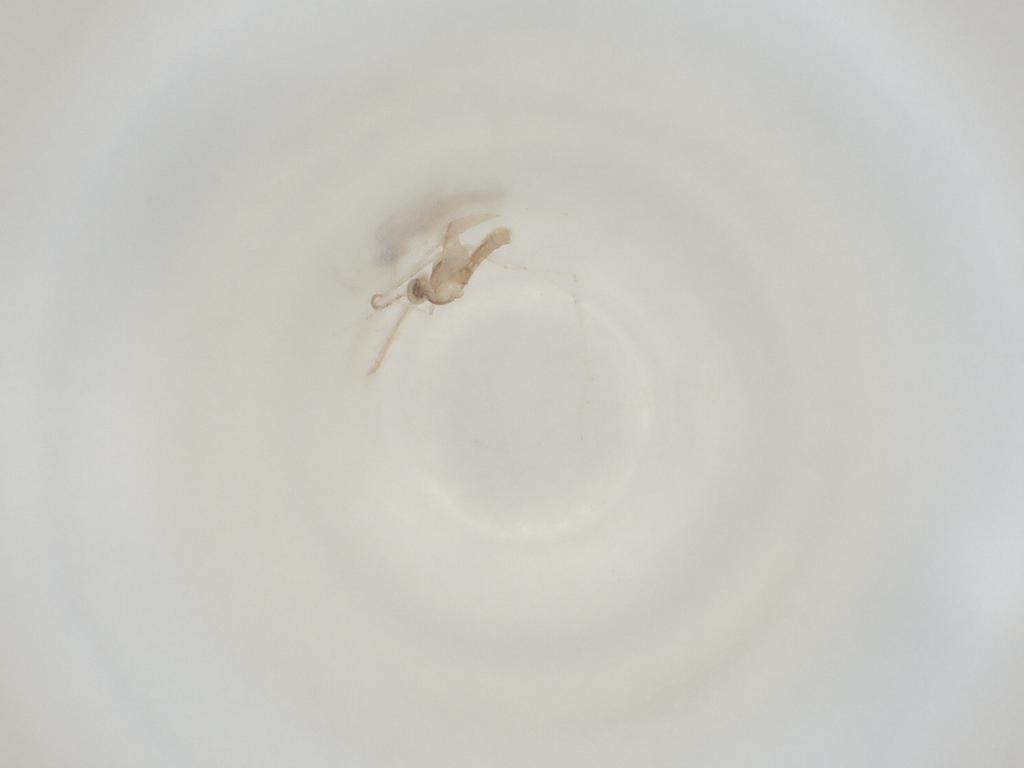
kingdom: Animalia
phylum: Arthropoda
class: Insecta
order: Diptera
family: Cecidomyiidae
